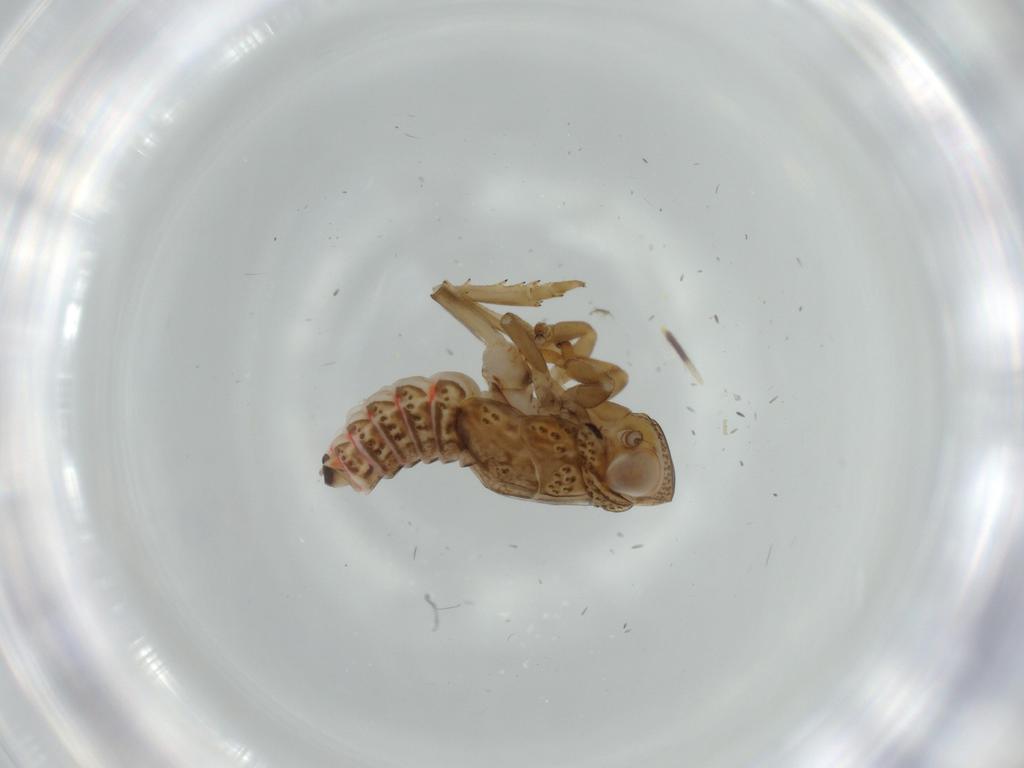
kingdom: Animalia
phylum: Arthropoda
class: Insecta
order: Hemiptera
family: Issidae
